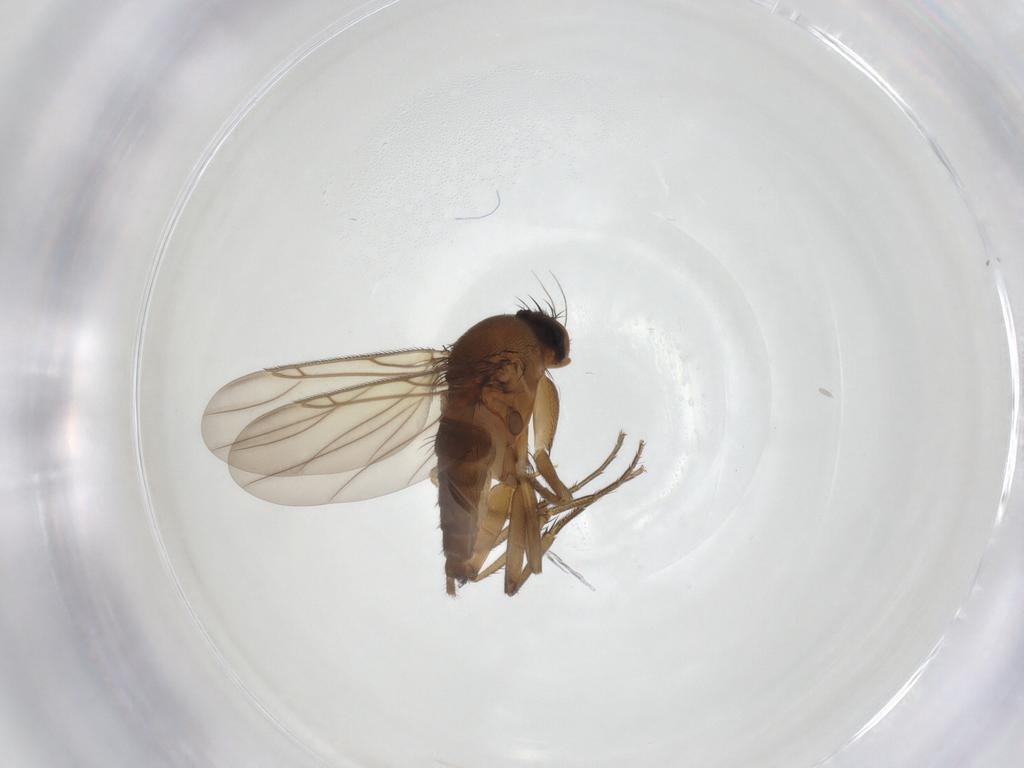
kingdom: Animalia
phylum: Arthropoda
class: Insecta
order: Diptera
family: Phoridae
